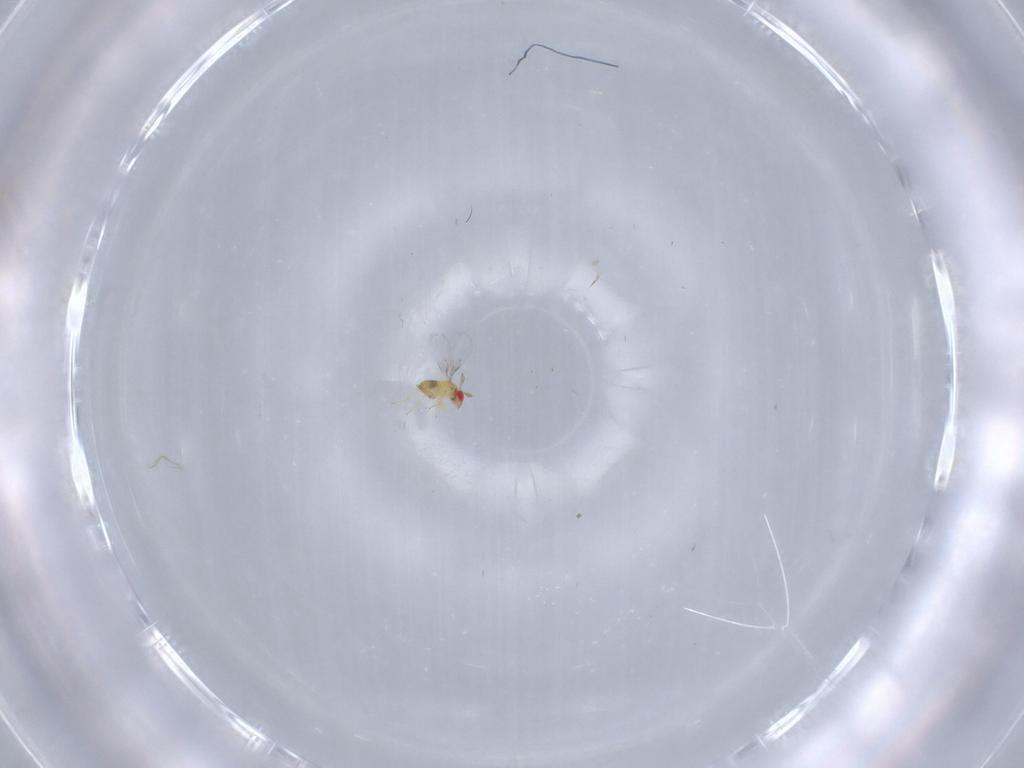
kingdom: Animalia
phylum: Arthropoda
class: Insecta
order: Hymenoptera
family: Trichogrammatidae
